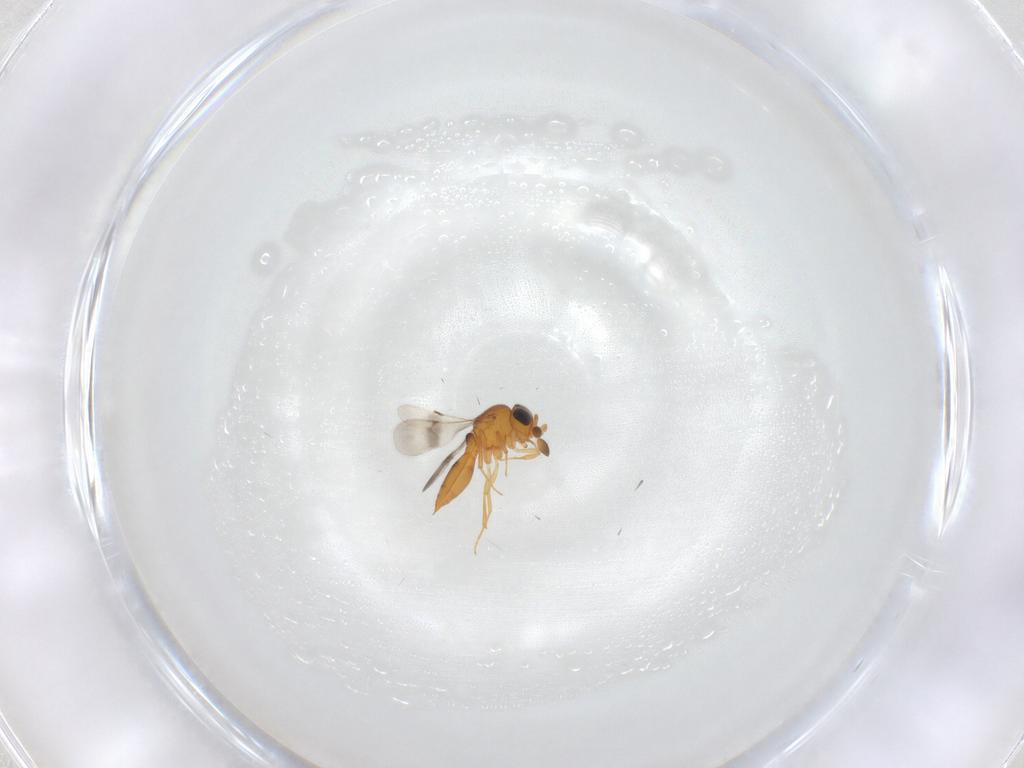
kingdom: Animalia
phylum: Arthropoda
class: Insecta
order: Hymenoptera
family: Scelionidae
